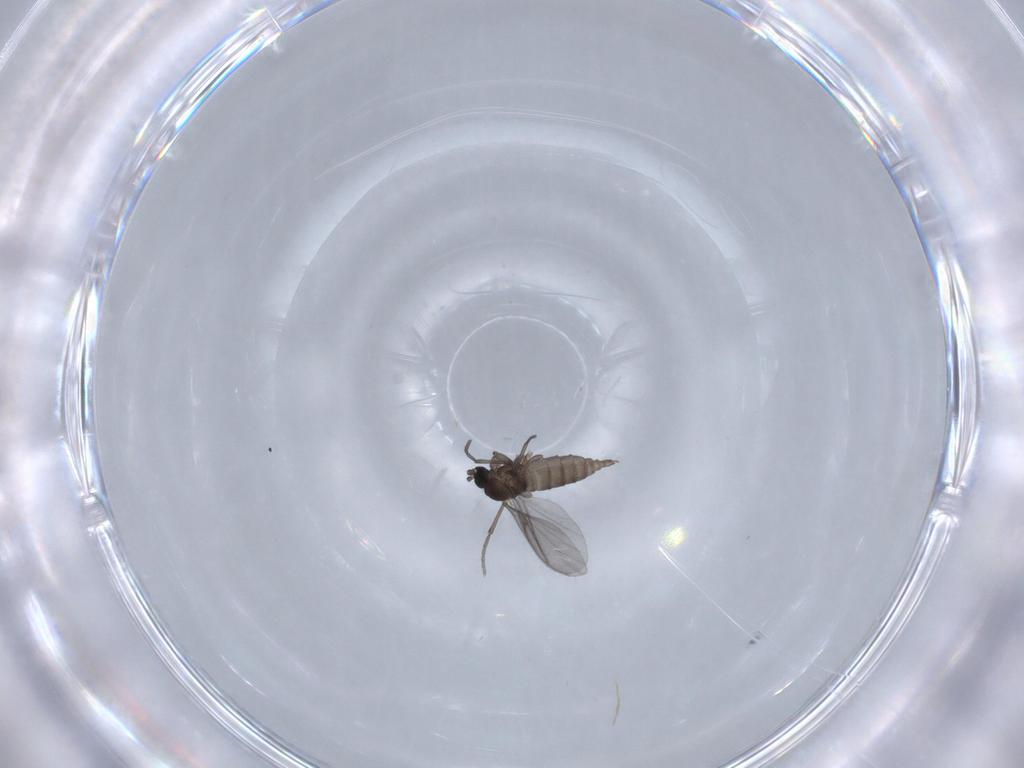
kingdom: Animalia
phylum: Arthropoda
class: Insecta
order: Diptera
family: Sciaridae
